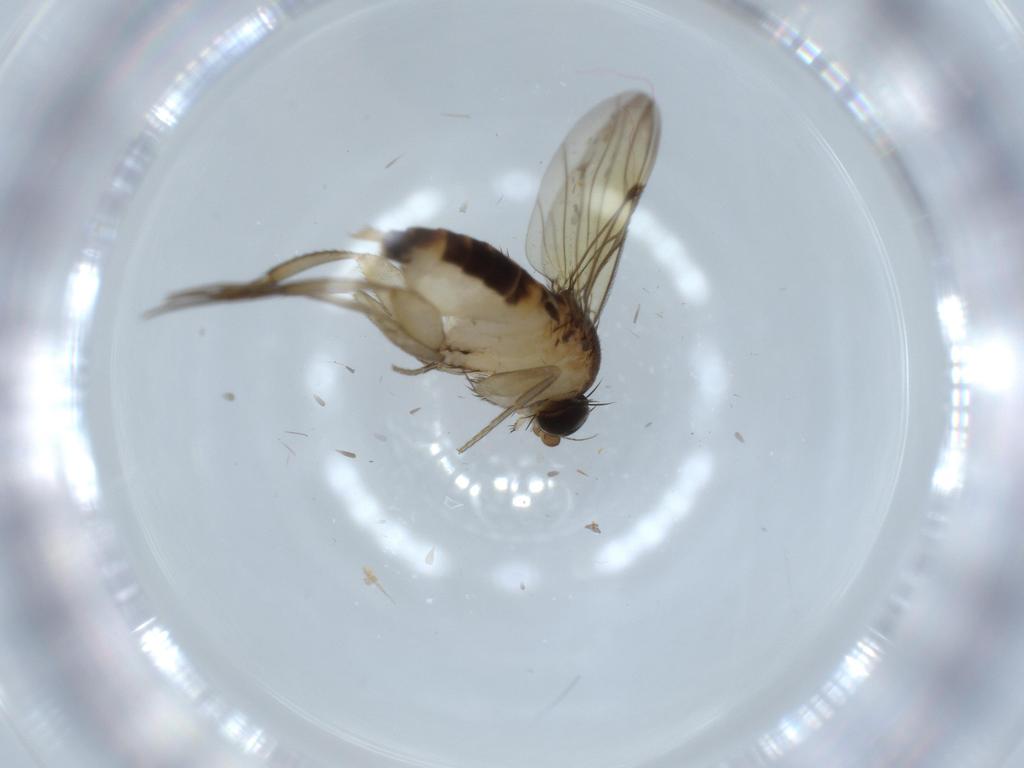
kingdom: Animalia
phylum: Arthropoda
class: Insecta
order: Diptera
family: Phoridae
